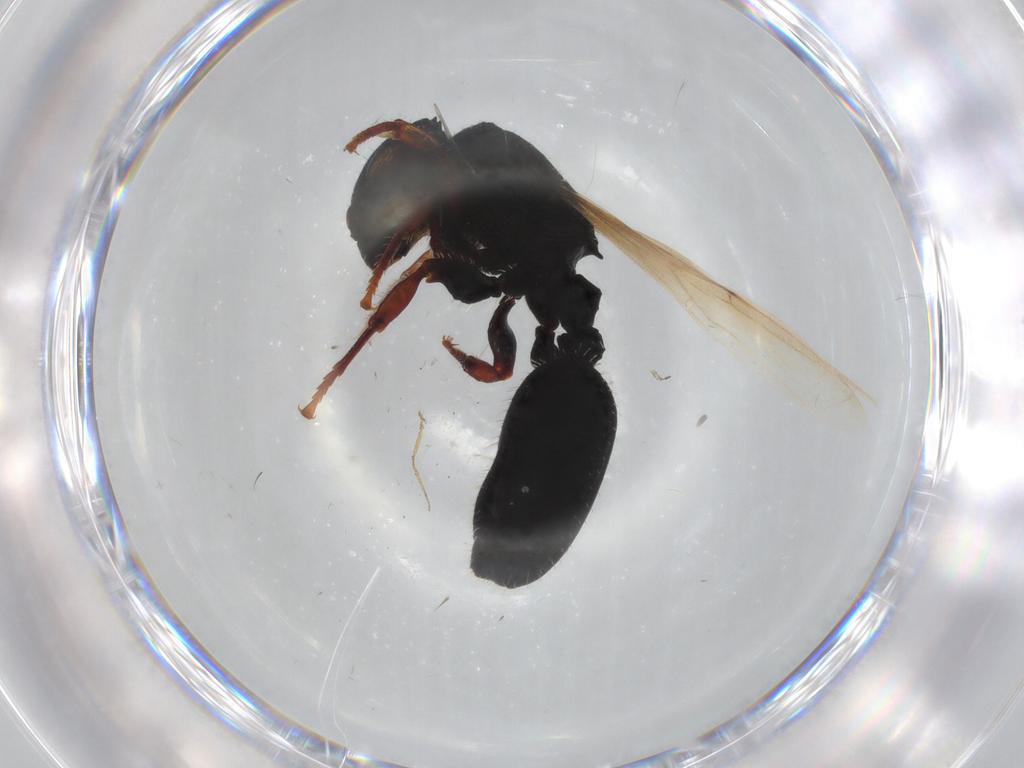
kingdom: Animalia
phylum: Arthropoda
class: Insecta
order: Hymenoptera
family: Formicidae
